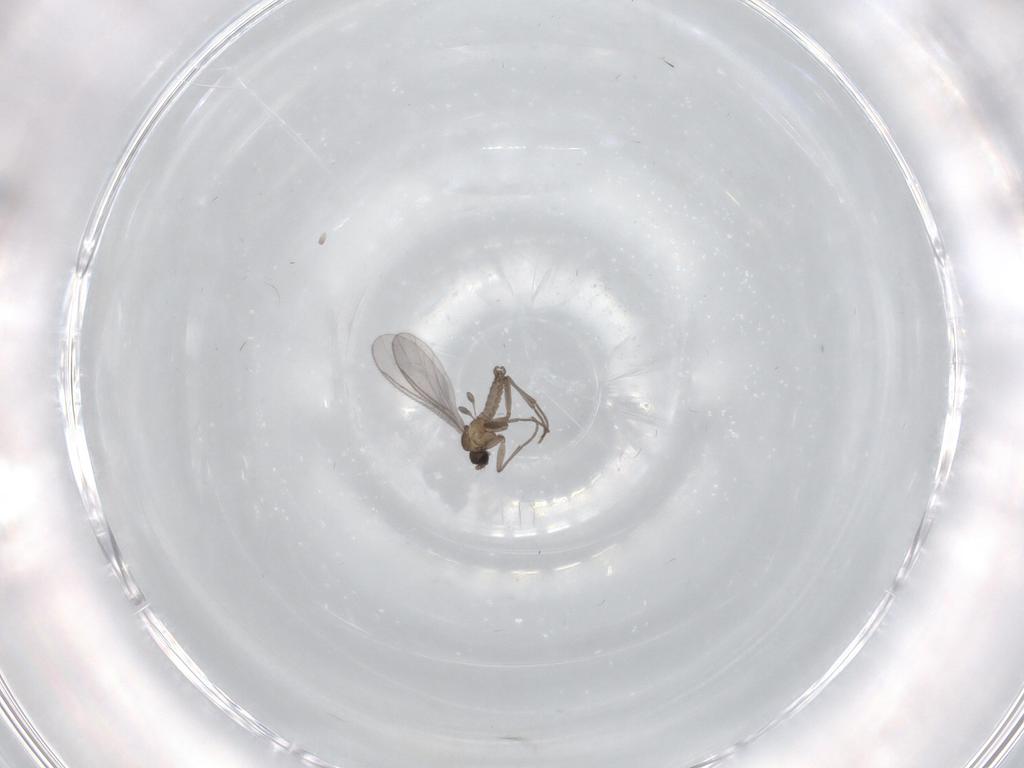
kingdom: Animalia
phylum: Arthropoda
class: Insecta
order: Diptera
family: Sciaridae
